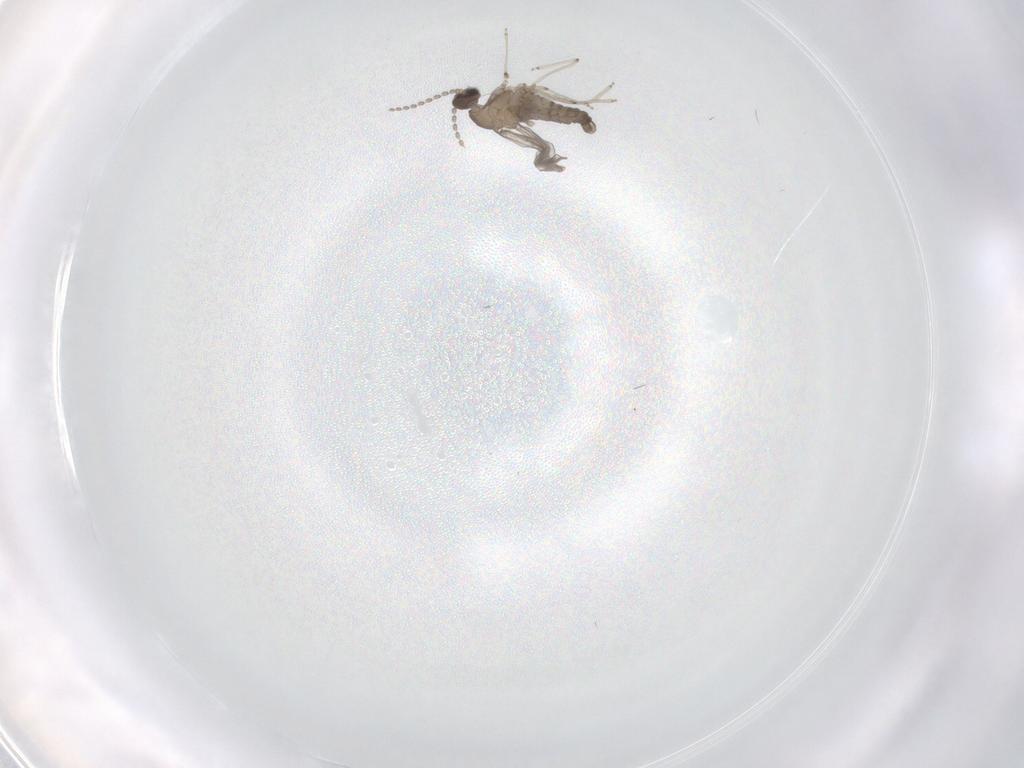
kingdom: Animalia
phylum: Arthropoda
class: Insecta
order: Diptera
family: Cecidomyiidae
